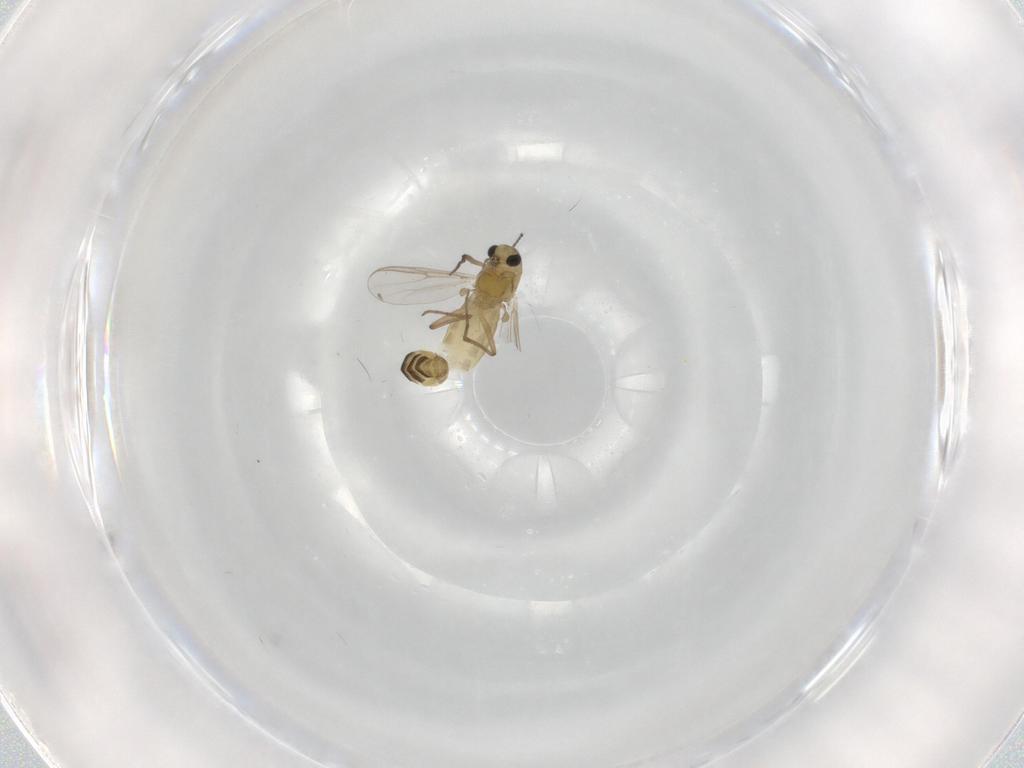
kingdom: Animalia
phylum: Arthropoda
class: Insecta
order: Diptera
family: Chironomidae
